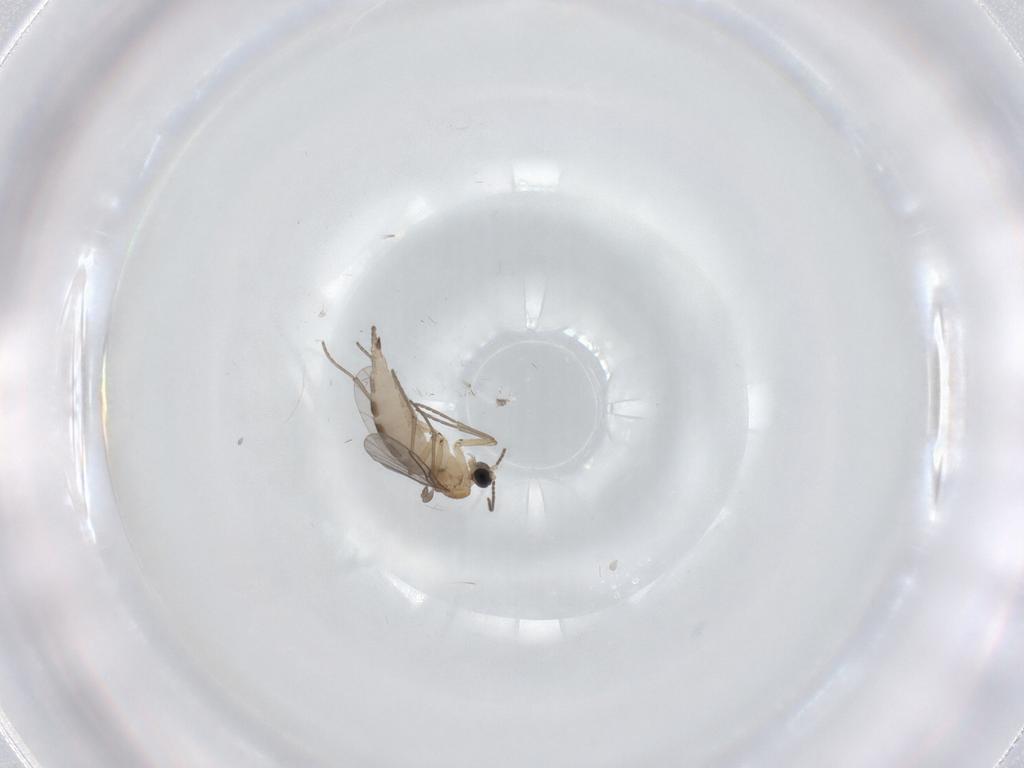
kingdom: Animalia
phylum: Arthropoda
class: Insecta
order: Diptera
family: Sciaridae
